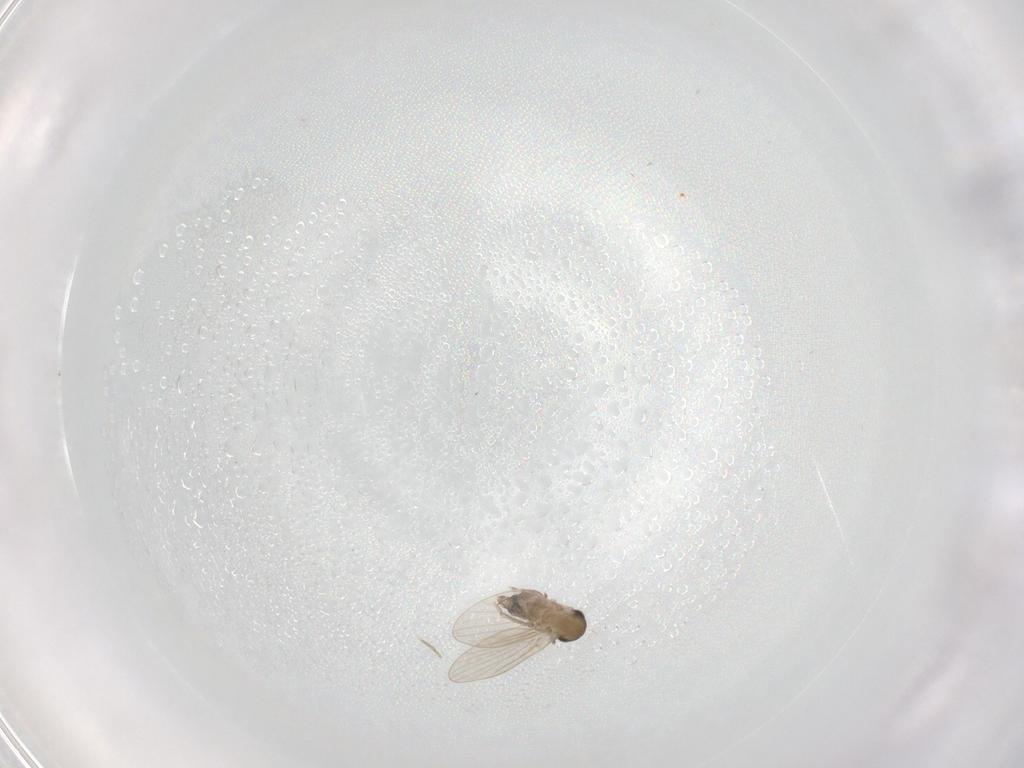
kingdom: Animalia
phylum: Arthropoda
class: Insecta
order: Diptera
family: Psychodidae
